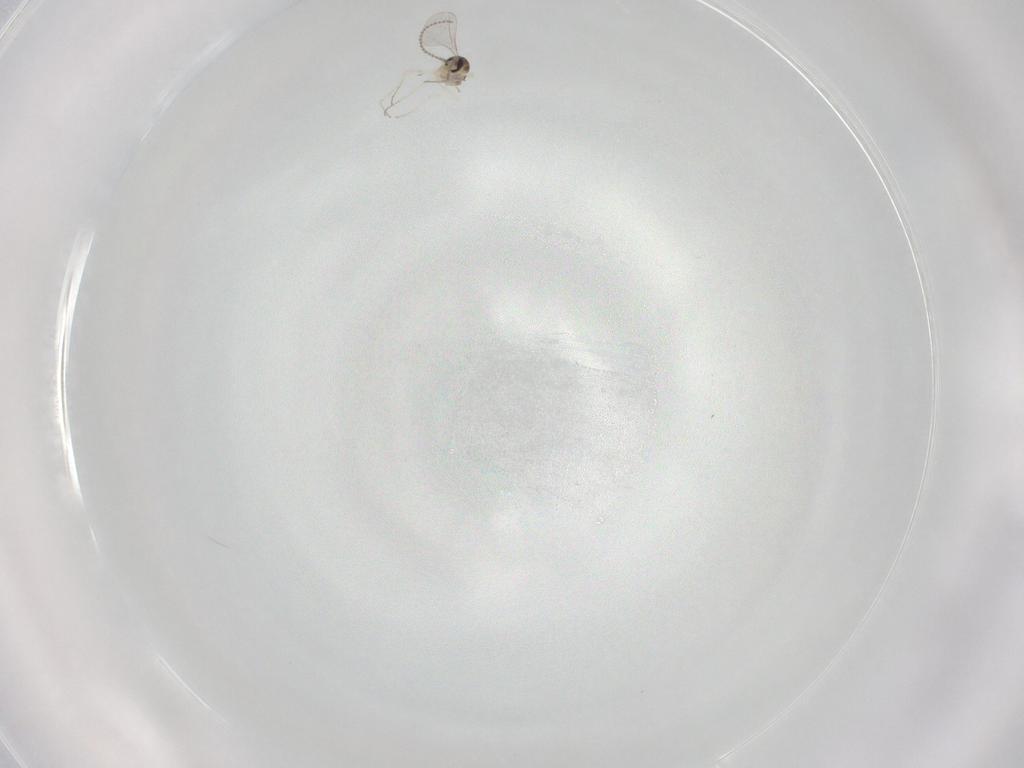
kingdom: Animalia
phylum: Arthropoda
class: Insecta
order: Diptera
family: Cecidomyiidae
